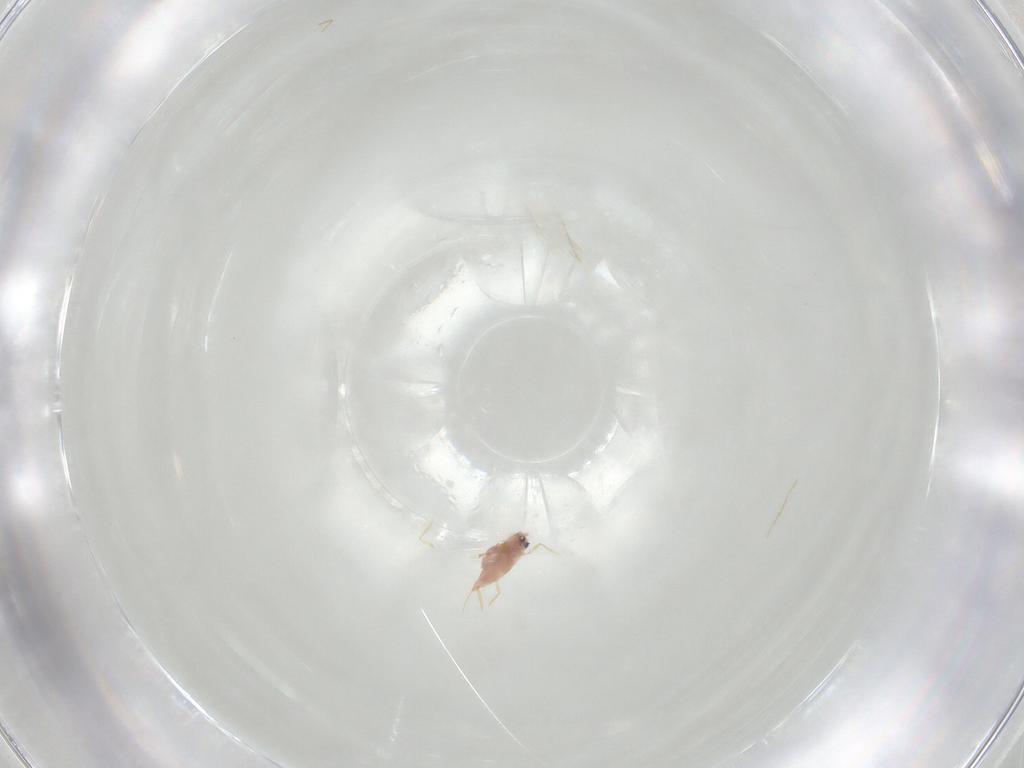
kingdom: Animalia
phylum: Arthropoda
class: Insecta
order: Hemiptera
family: Diaspididae
